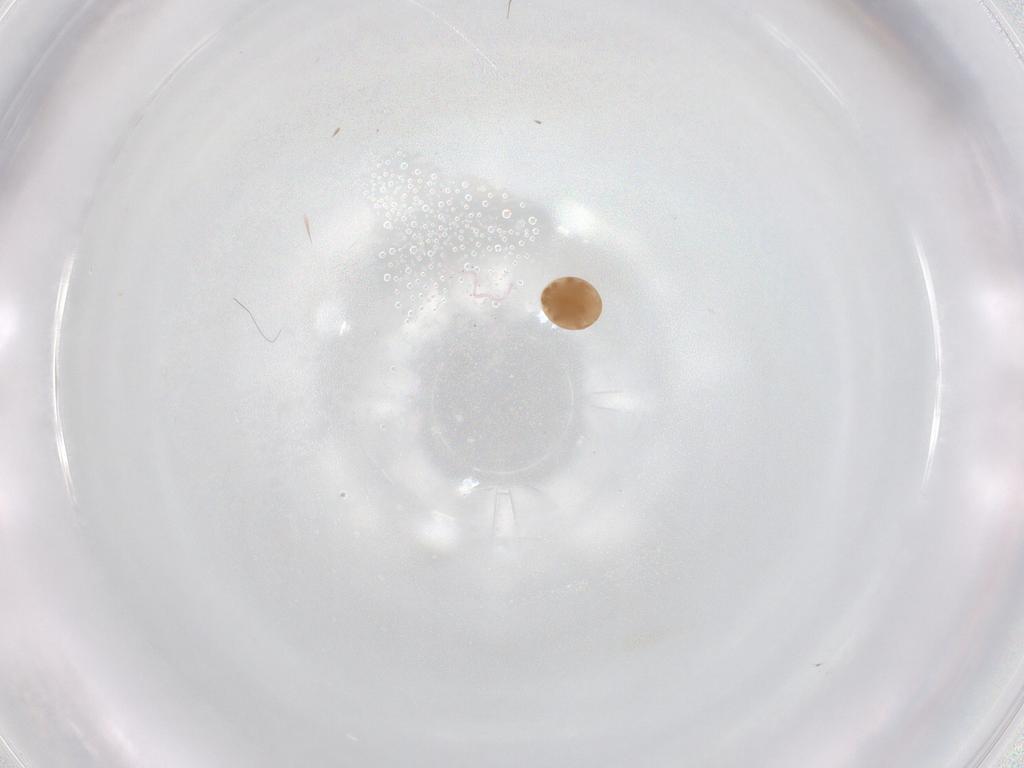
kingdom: Animalia
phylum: Arthropoda
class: Arachnida
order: Mesostigmata
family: Trematuridae
